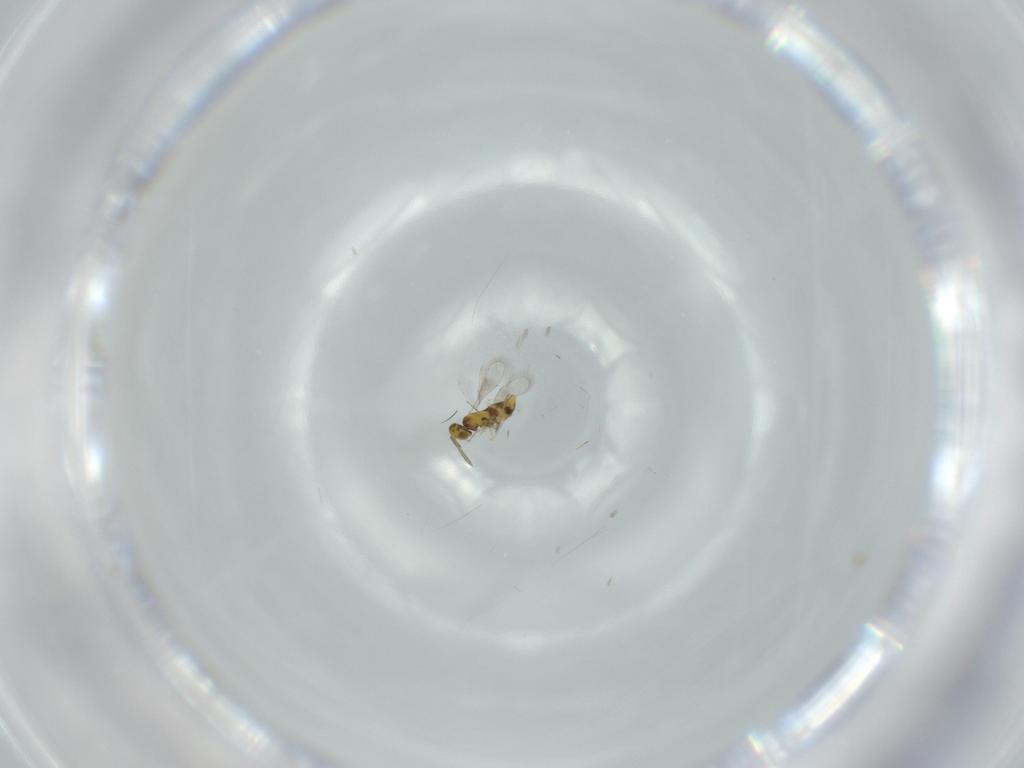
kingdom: Animalia
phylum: Arthropoda
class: Insecta
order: Hymenoptera
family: Aphelinidae
